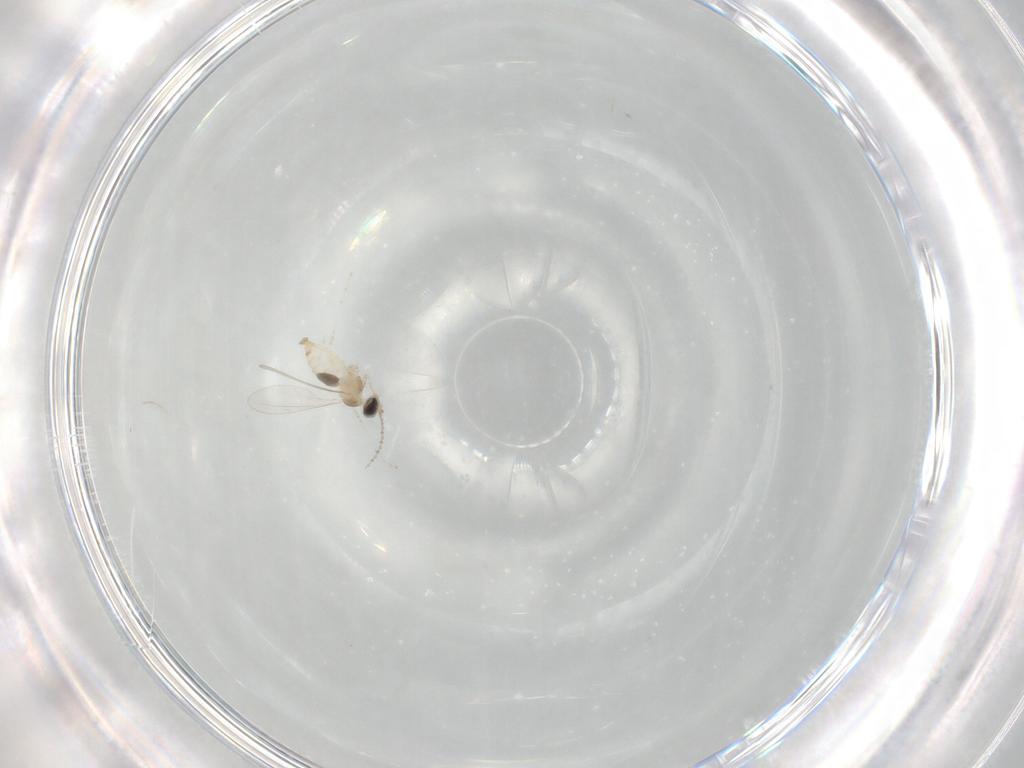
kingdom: Animalia
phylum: Arthropoda
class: Insecta
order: Diptera
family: Cecidomyiidae
